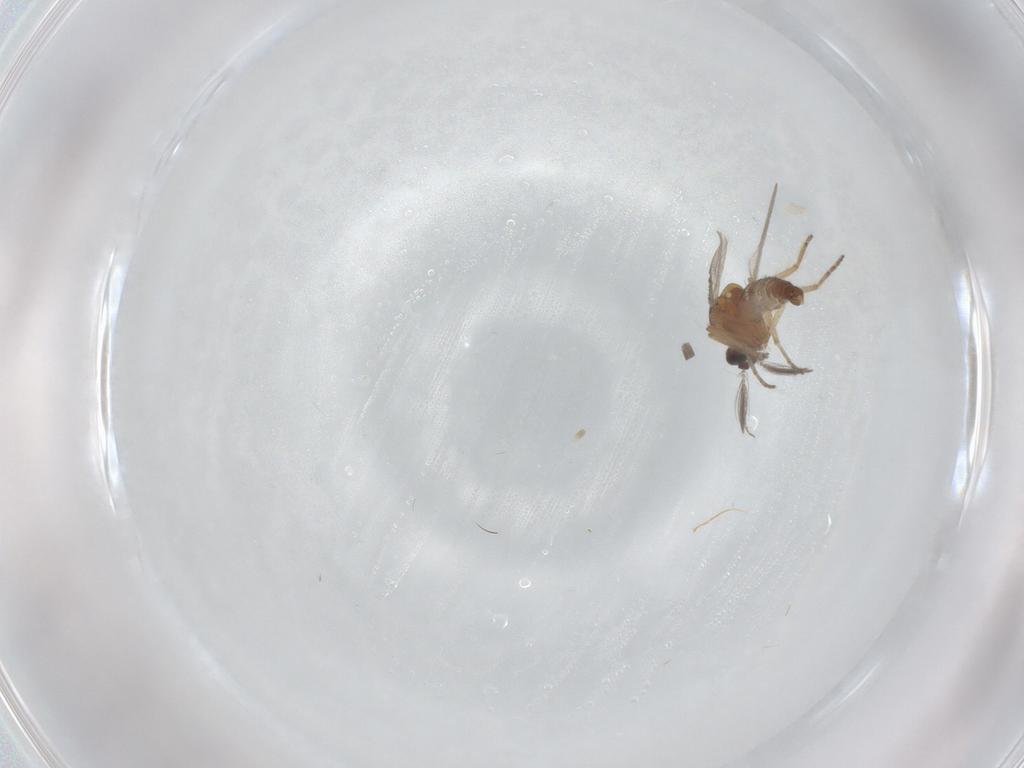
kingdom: Animalia
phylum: Arthropoda
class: Insecta
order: Diptera
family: Ceratopogonidae
